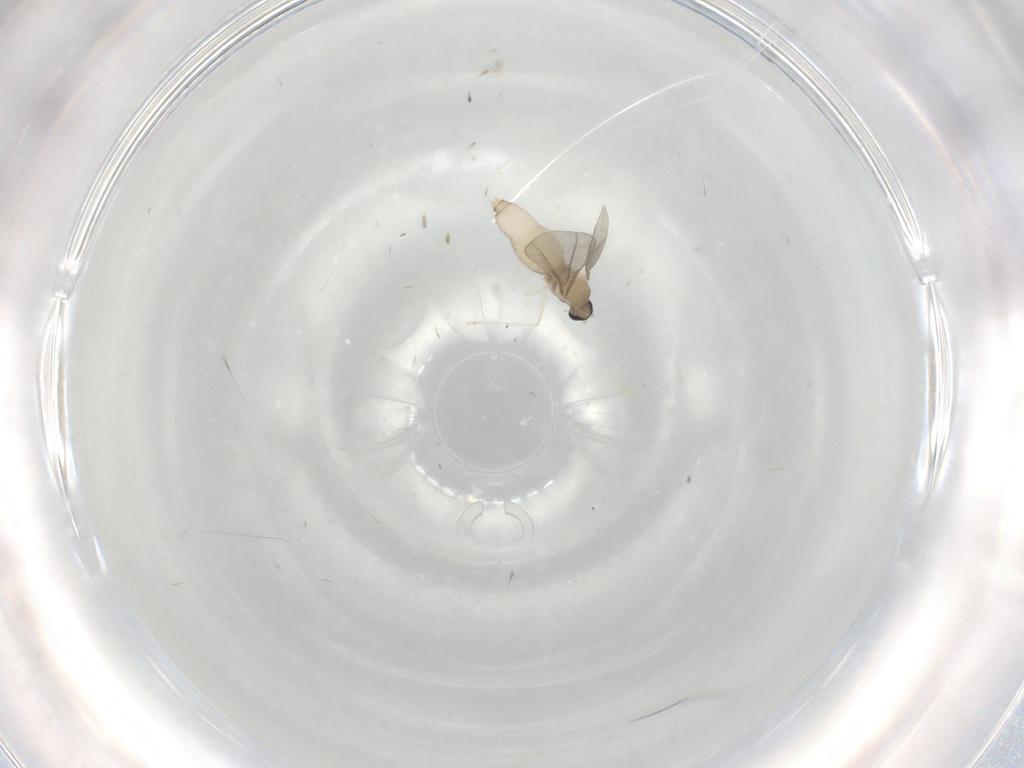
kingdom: Animalia
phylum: Arthropoda
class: Insecta
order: Diptera
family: Cecidomyiidae
